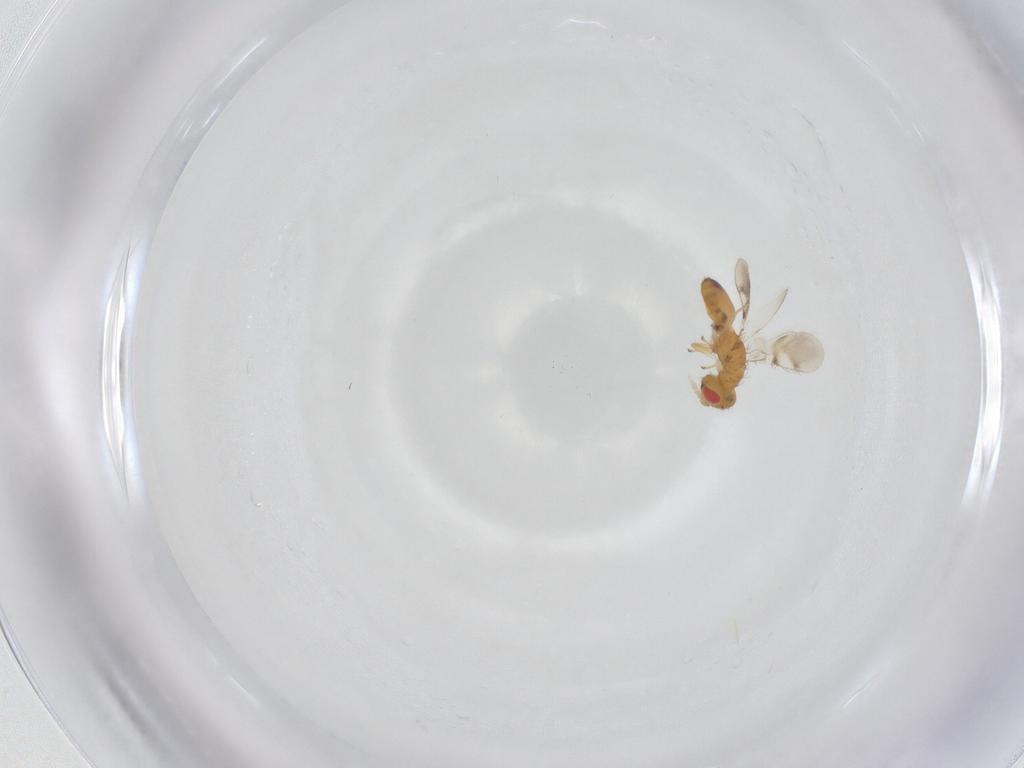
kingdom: Animalia
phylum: Arthropoda
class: Insecta
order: Diptera
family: Sciaridae
